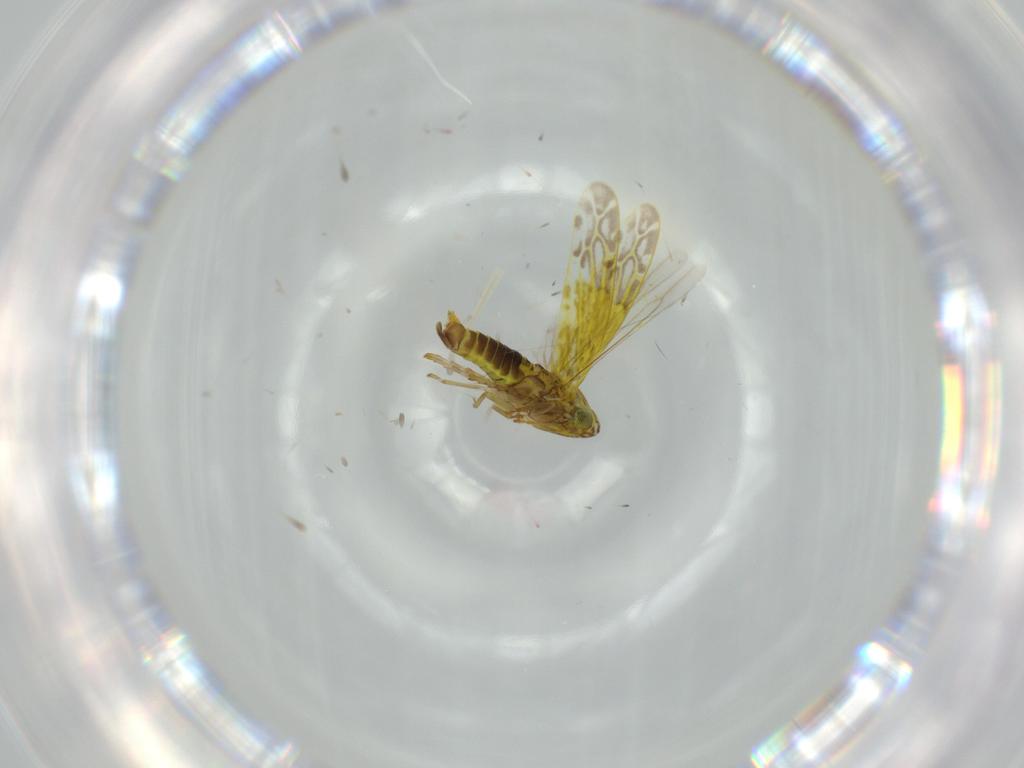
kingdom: Animalia
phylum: Arthropoda
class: Insecta
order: Hemiptera
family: Cicadellidae
